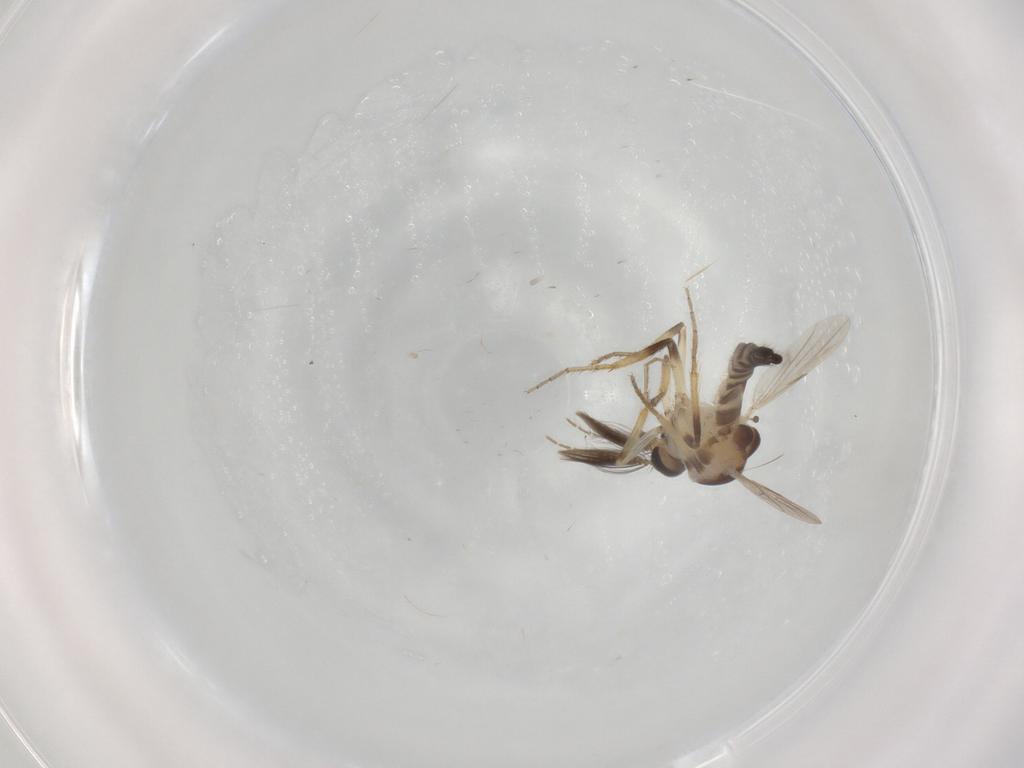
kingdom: Animalia
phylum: Arthropoda
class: Insecta
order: Diptera
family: Ceratopogonidae
